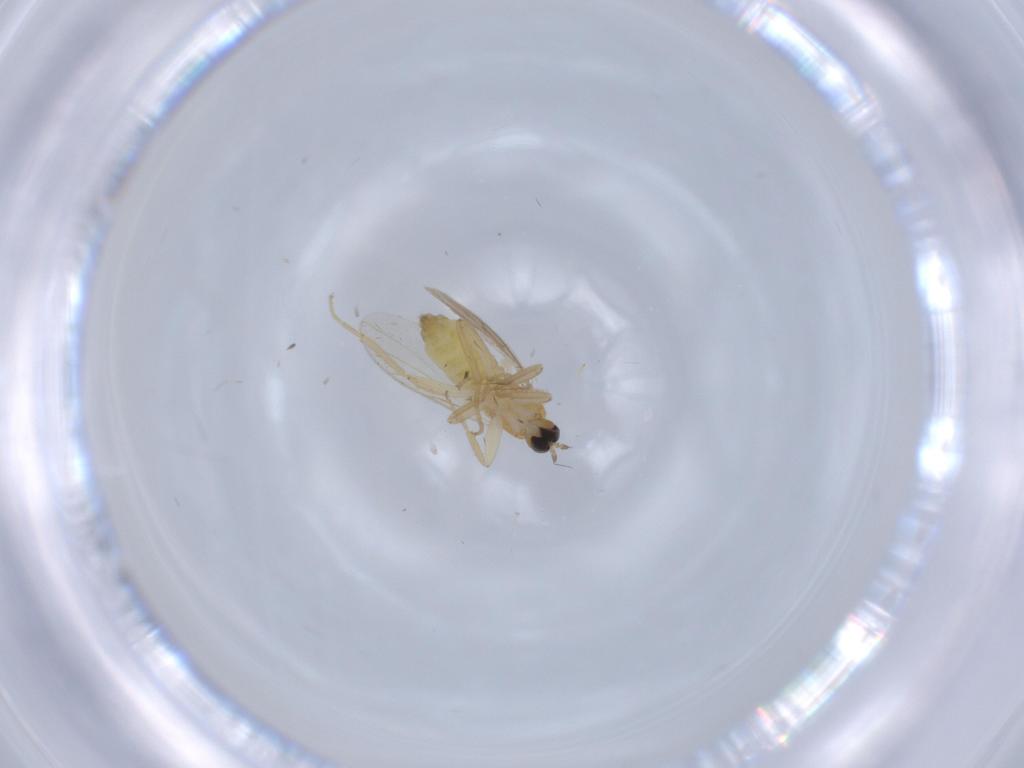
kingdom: Animalia
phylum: Arthropoda
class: Insecta
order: Diptera
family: Hybotidae
